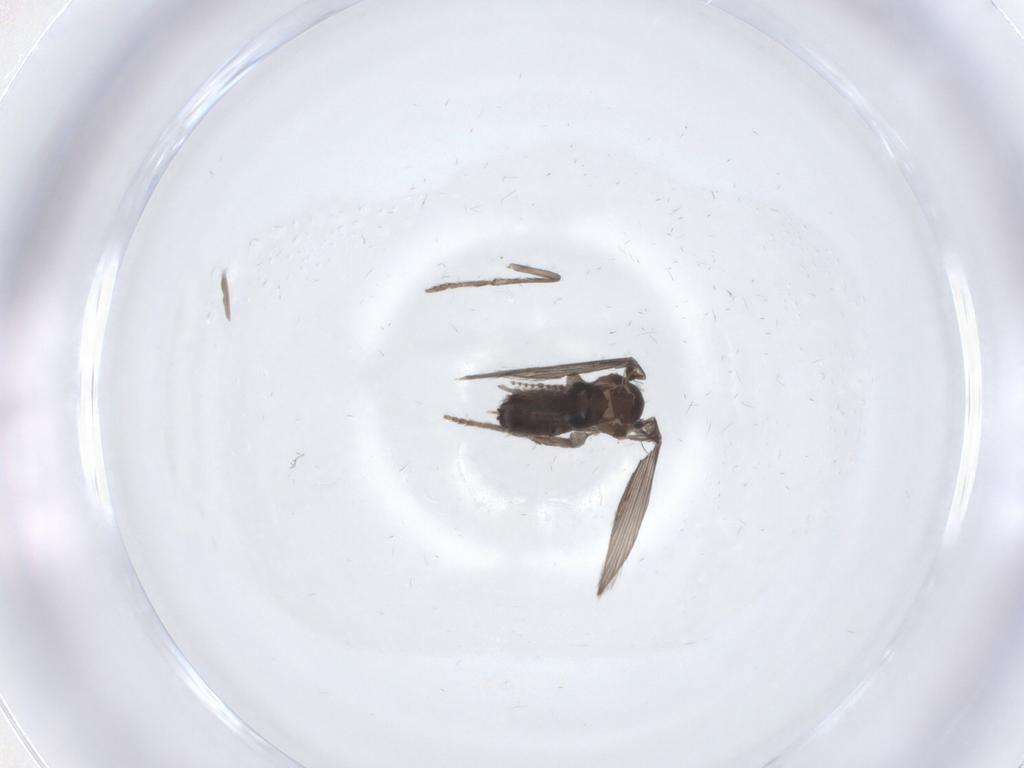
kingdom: Animalia
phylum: Arthropoda
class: Insecta
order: Diptera
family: Psychodidae
